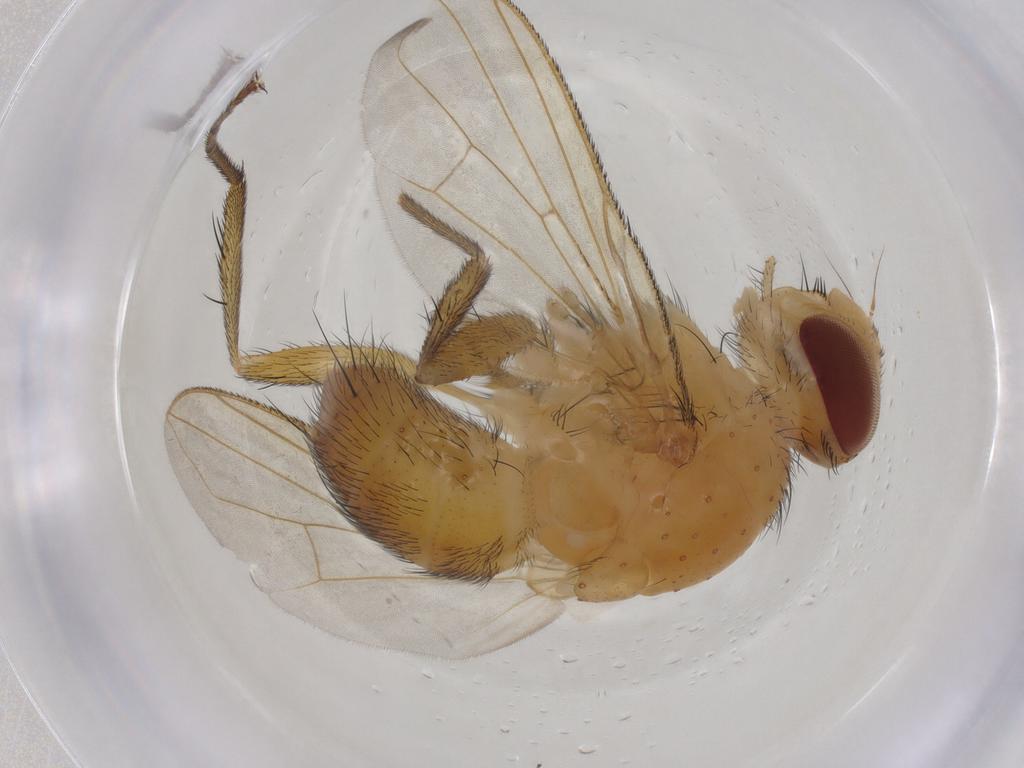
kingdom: Animalia
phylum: Arthropoda
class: Insecta
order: Diptera
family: Tachinidae
